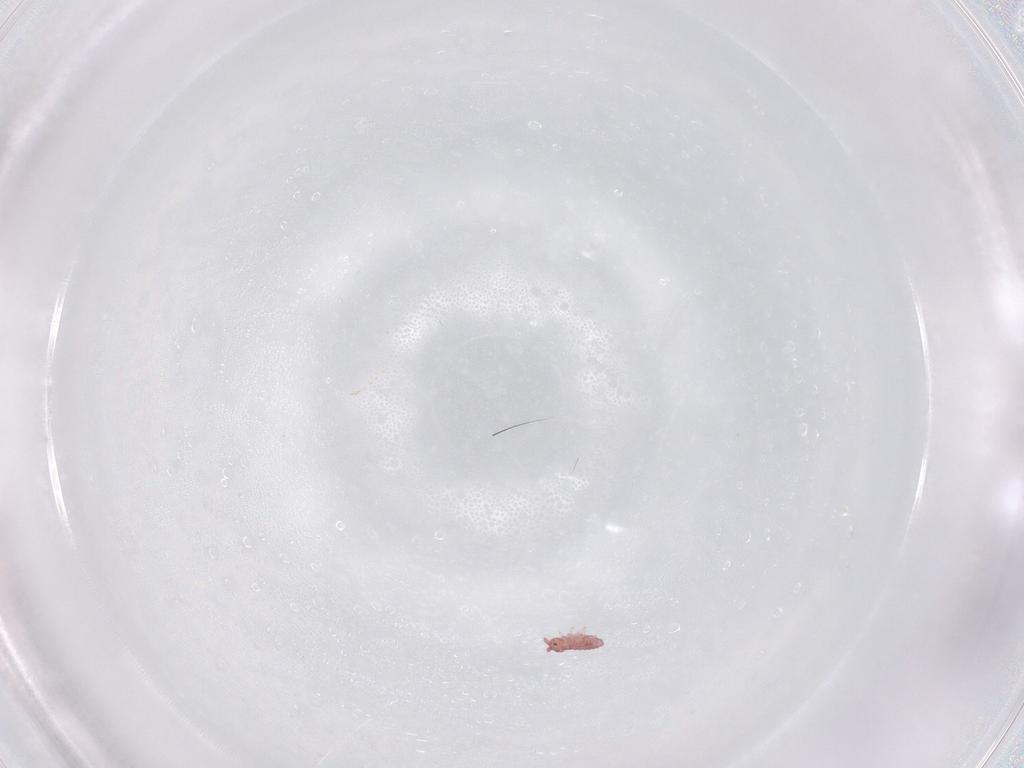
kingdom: Animalia
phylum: Arthropoda
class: Collembola
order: Poduromorpha
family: Hypogastruridae
